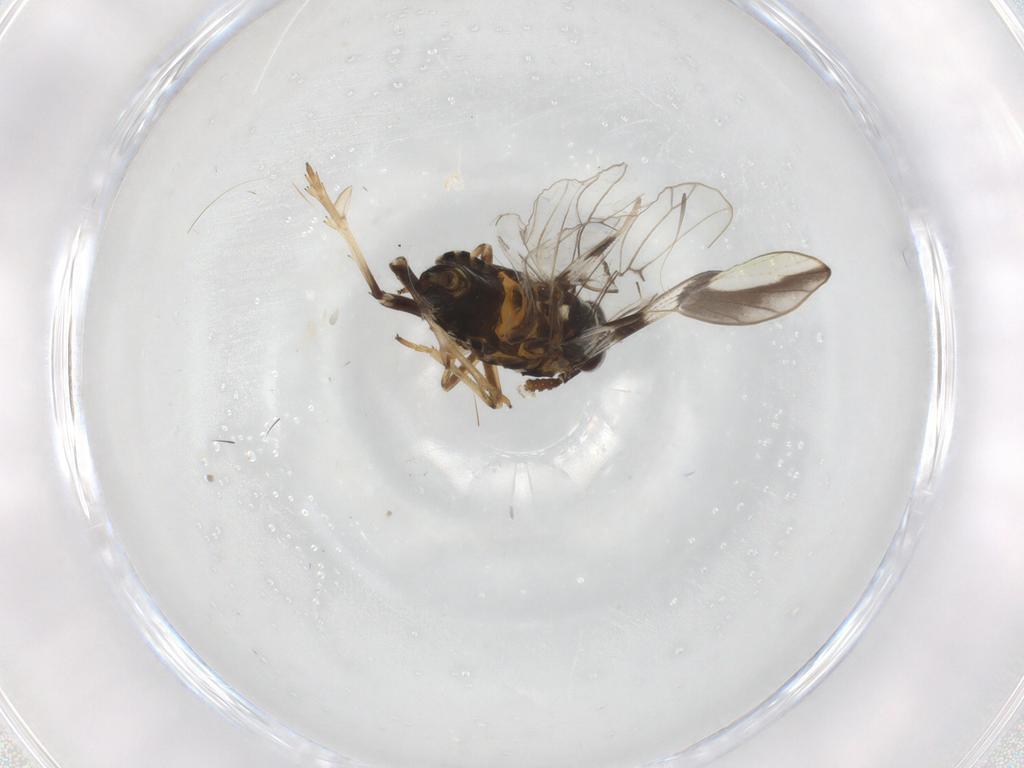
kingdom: Animalia
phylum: Arthropoda
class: Insecta
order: Hemiptera
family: Delphacidae
